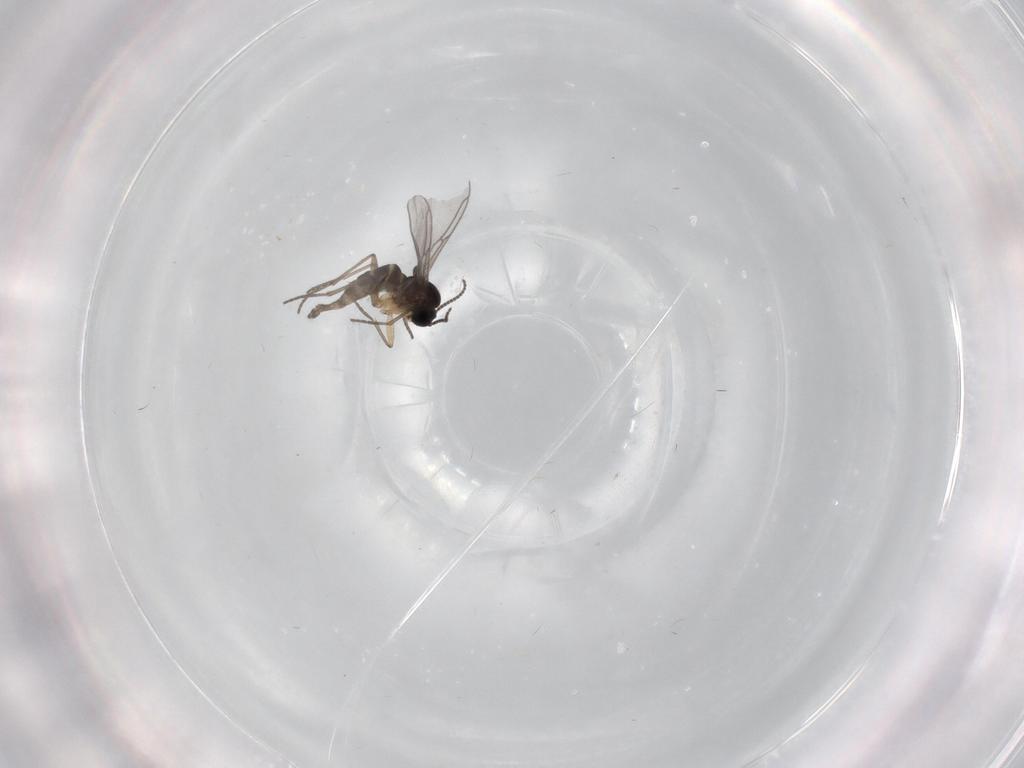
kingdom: Animalia
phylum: Arthropoda
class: Insecta
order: Diptera
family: Sciaridae
